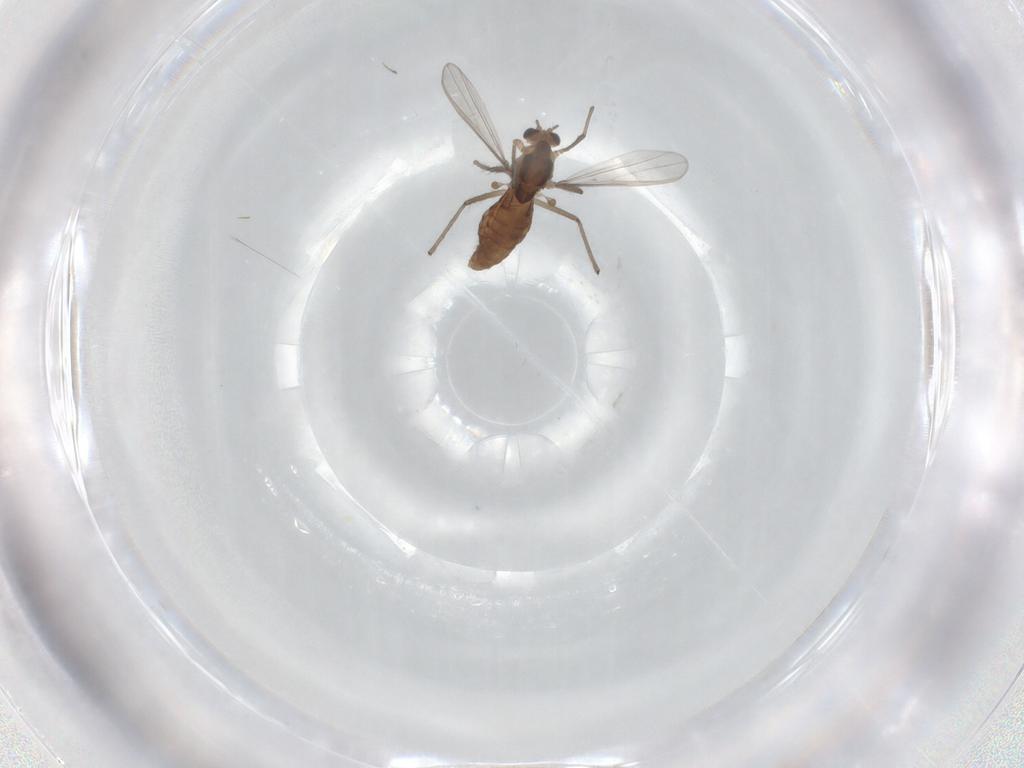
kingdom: Animalia
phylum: Arthropoda
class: Insecta
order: Diptera
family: Chironomidae
